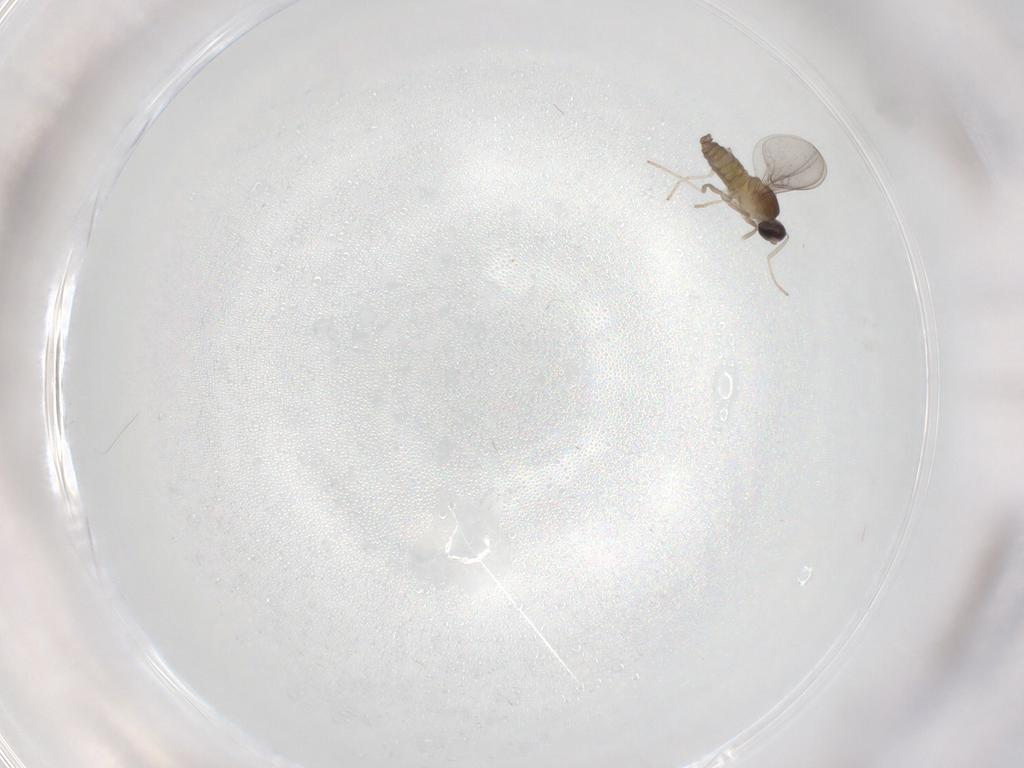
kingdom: Animalia
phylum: Arthropoda
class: Insecta
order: Diptera
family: Cecidomyiidae
